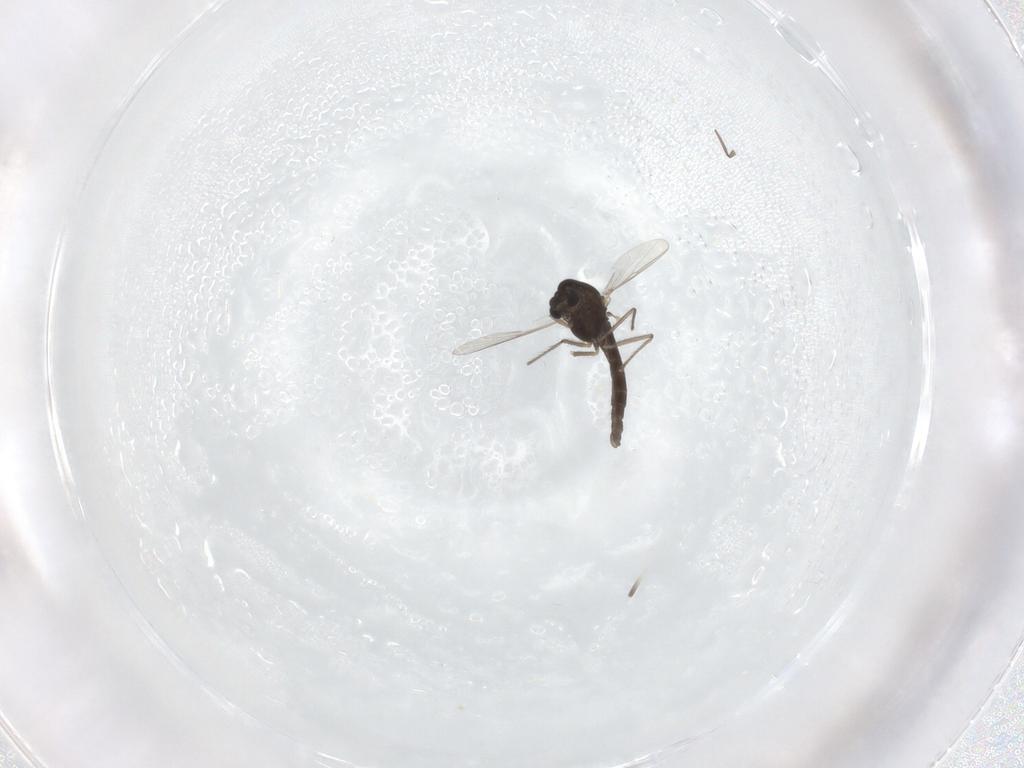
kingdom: Animalia
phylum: Arthropoda
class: Insecta
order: Diptera
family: Chironomidae
